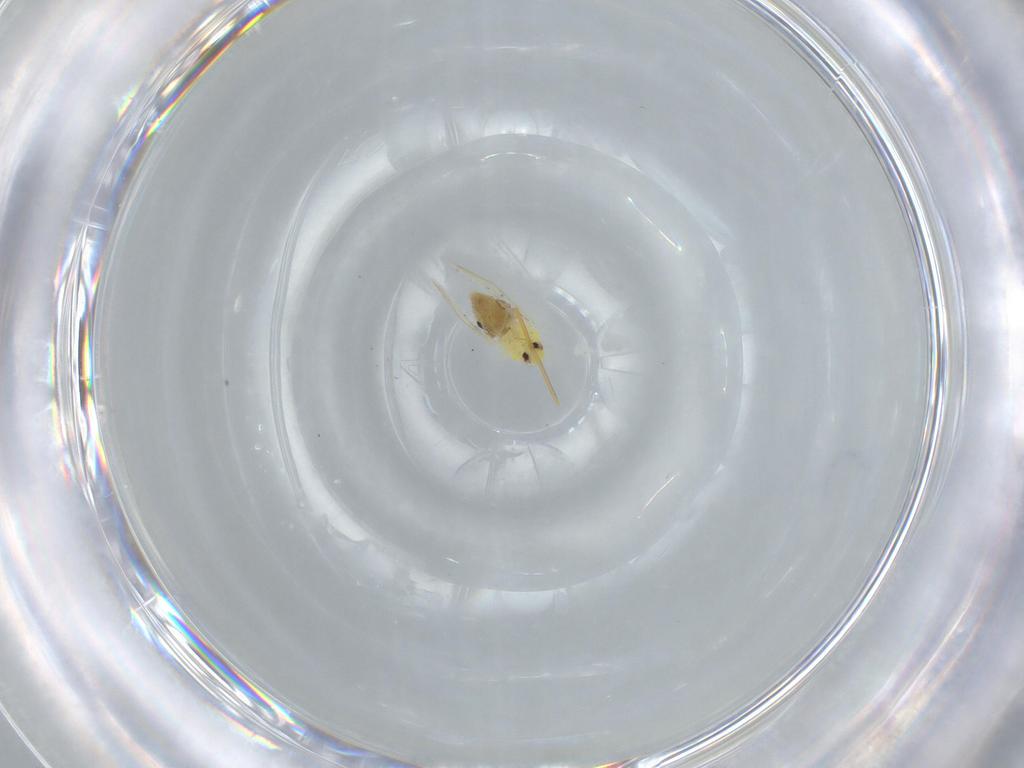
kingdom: Animalia
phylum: Arthropoda
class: Insecta
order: Hemiptera
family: Aleyrodidae
